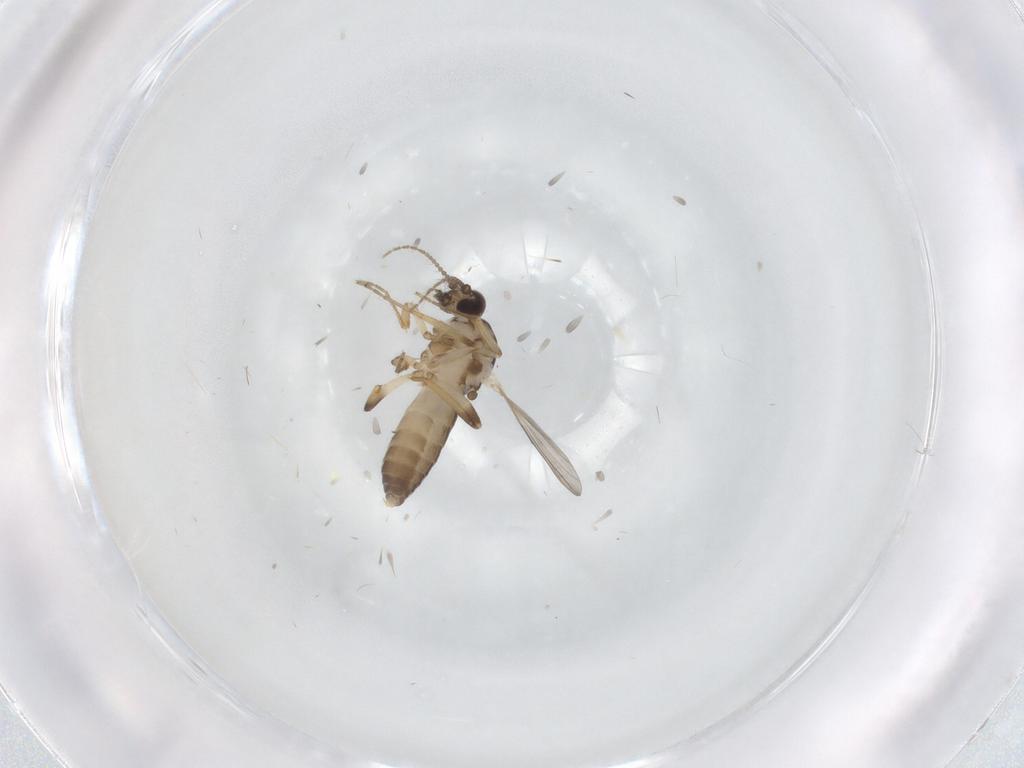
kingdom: Animalia
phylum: Arthropoda
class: Insecta
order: Diptera
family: Ceratopogonidae
